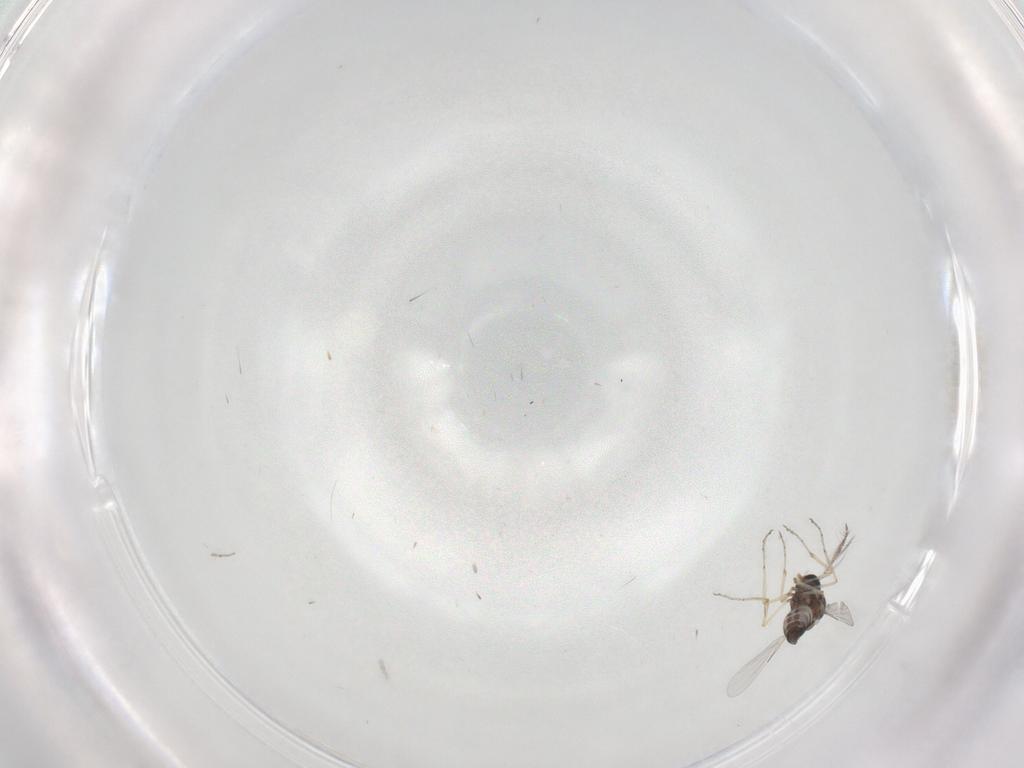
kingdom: Animalia
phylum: Arthropoda
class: Insecta
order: Diptera
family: Ceratopogonidae
